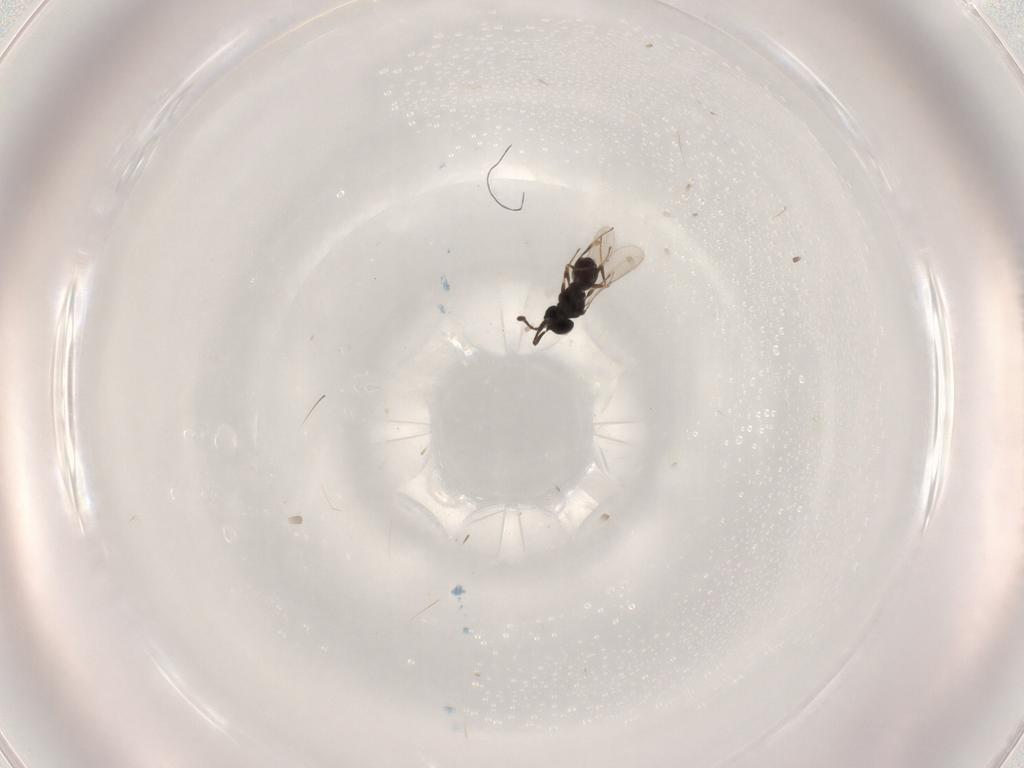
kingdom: Animalia
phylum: Arthropoda
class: Insecta
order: Hymenoptera
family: Scelionidae
